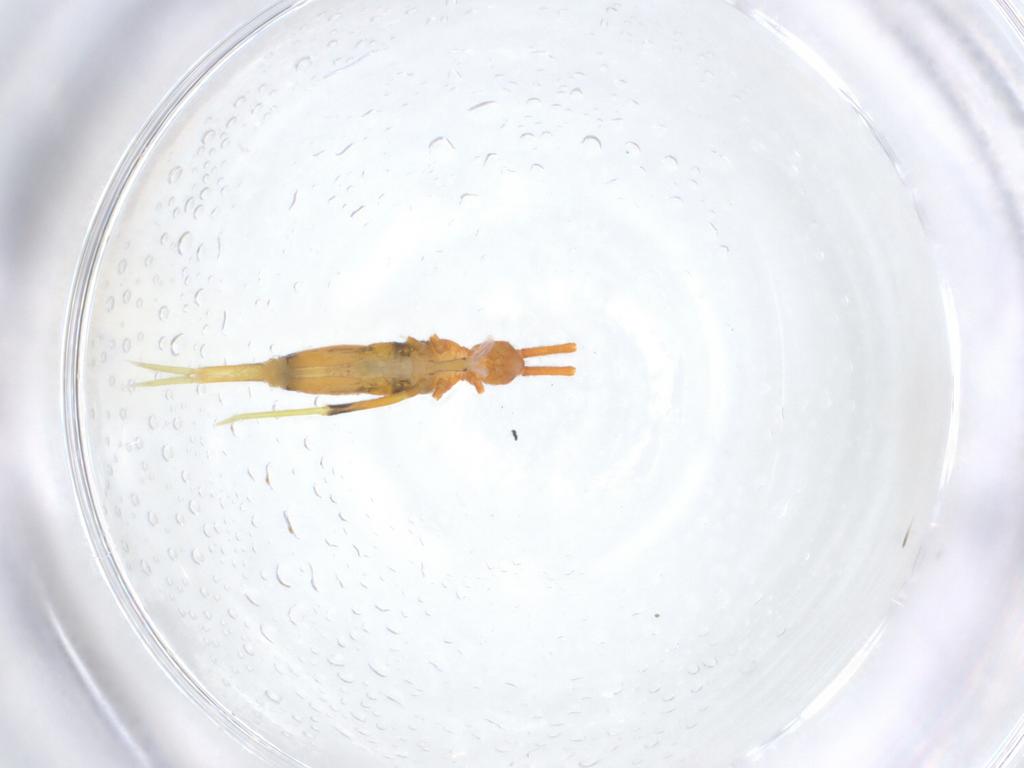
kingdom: Animalia
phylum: Arthropoda
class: Collembola
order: Entomobryomorpha
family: Entomobryidae
